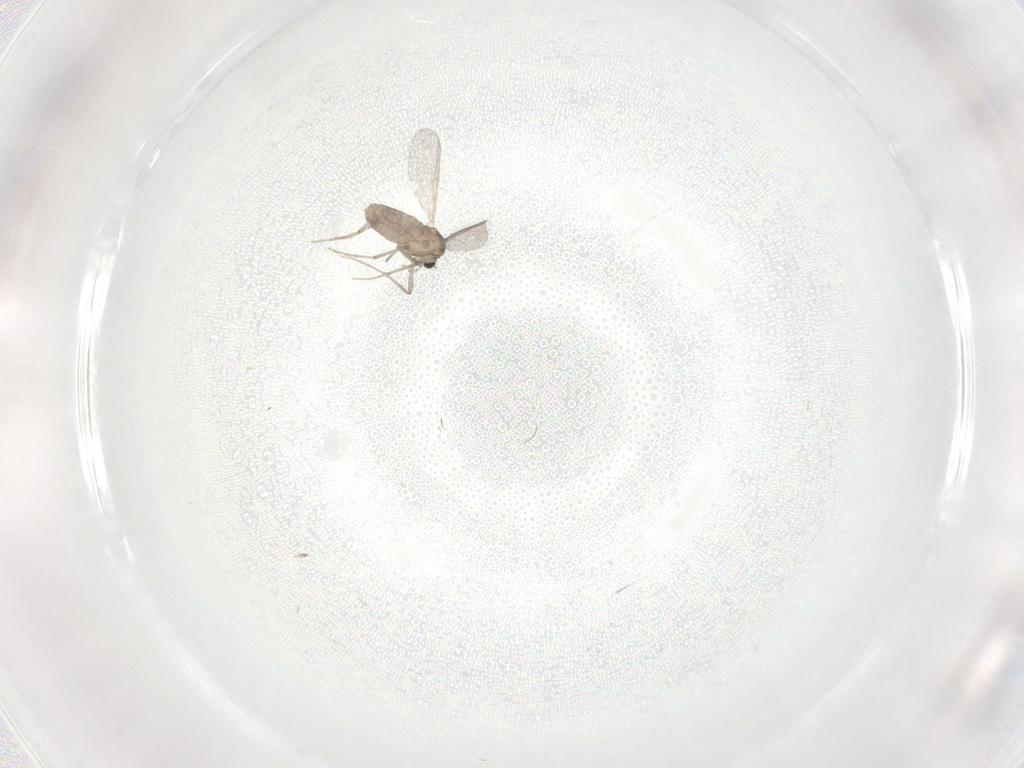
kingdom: Animalia
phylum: Arthropoda
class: Insecta
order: Diptera
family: Chironomidae
